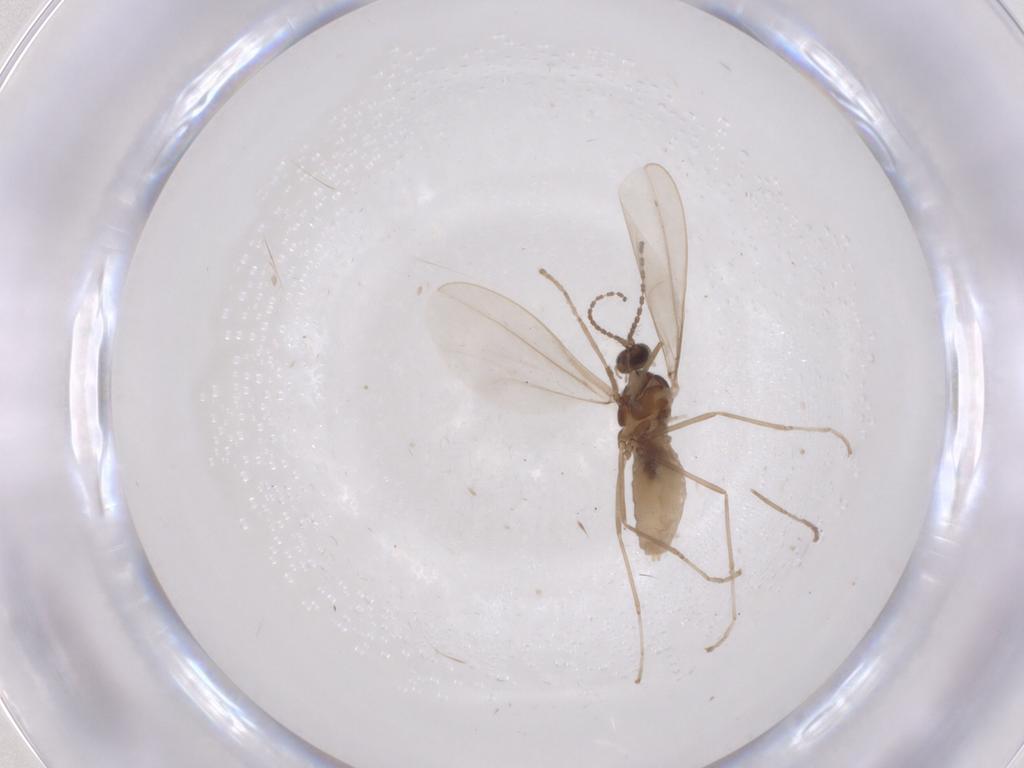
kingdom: Animalia
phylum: Arthropoda
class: Insecta
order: Diptera
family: Cecidomyiidae
